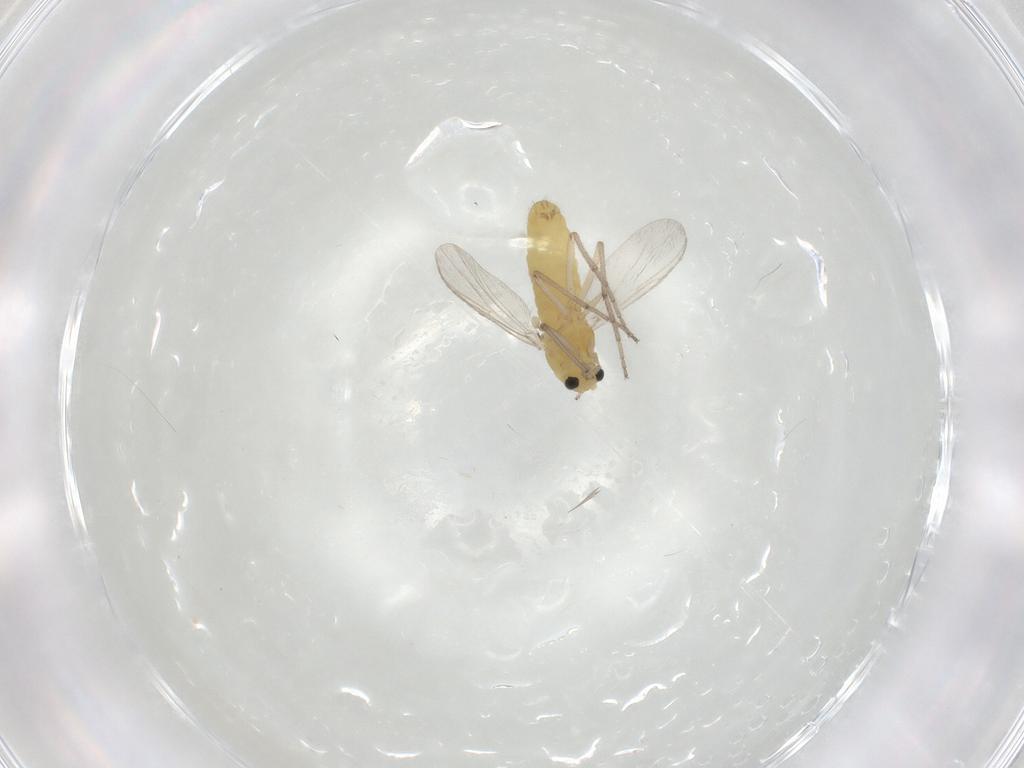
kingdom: Animalia
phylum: Arthropoda
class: Insecta
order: Diptera
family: Chironomidae
